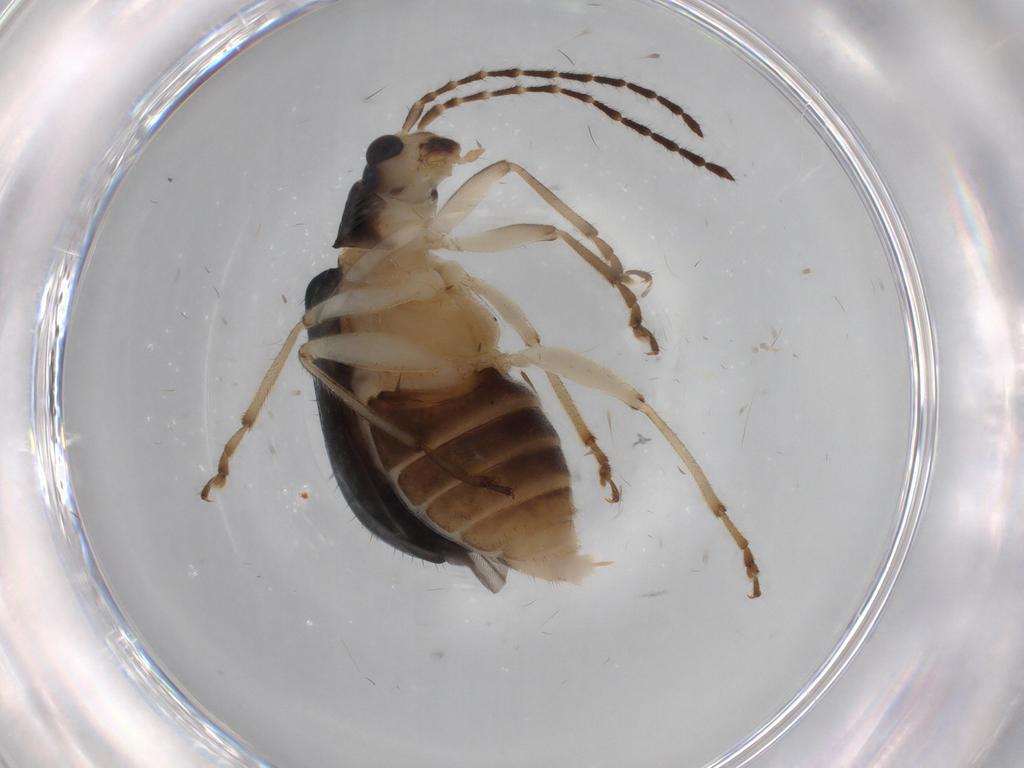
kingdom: Animalia
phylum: Arthropoda
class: Insecta
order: Coleoptera
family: Chrysomelidae
